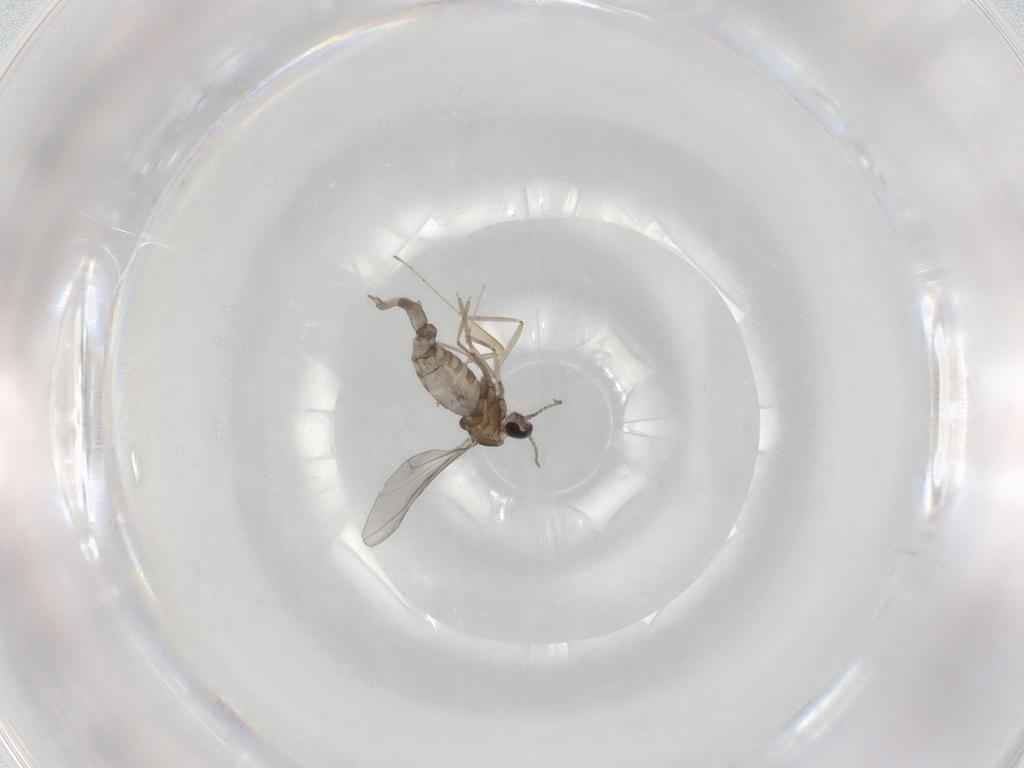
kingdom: Animalia
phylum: Arthropoda
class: Insecta
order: Diptera
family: Cecidomyiidae
